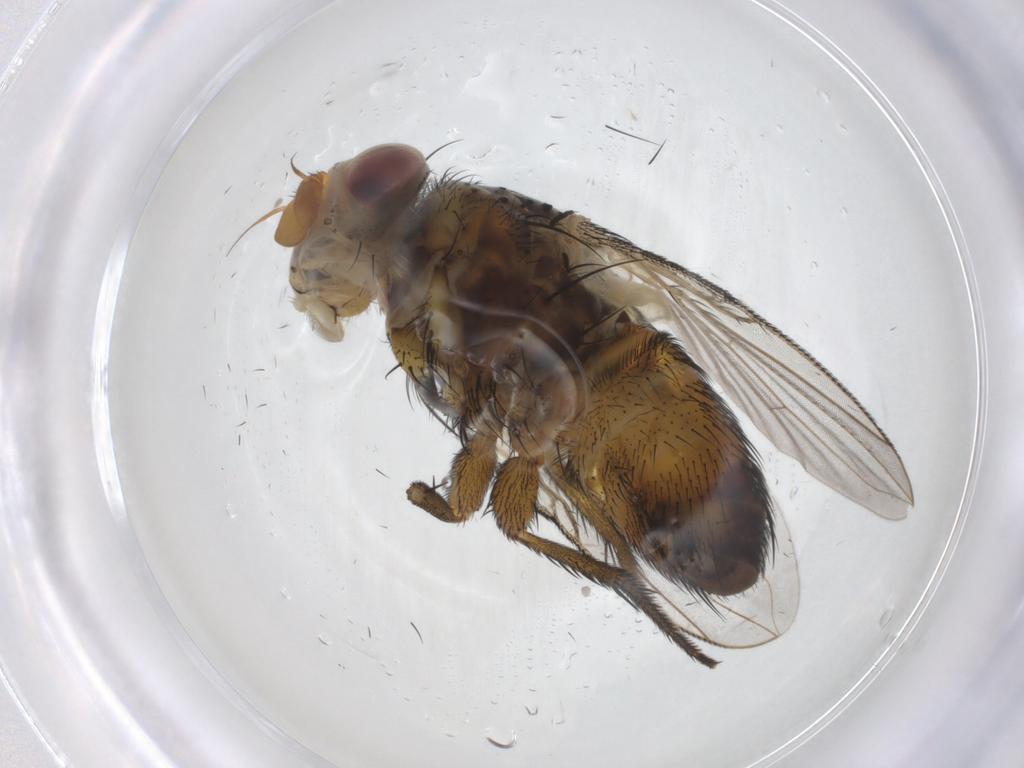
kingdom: Animalia
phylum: Arthropoda
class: Insecta
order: Diptera
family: Tachinidae
